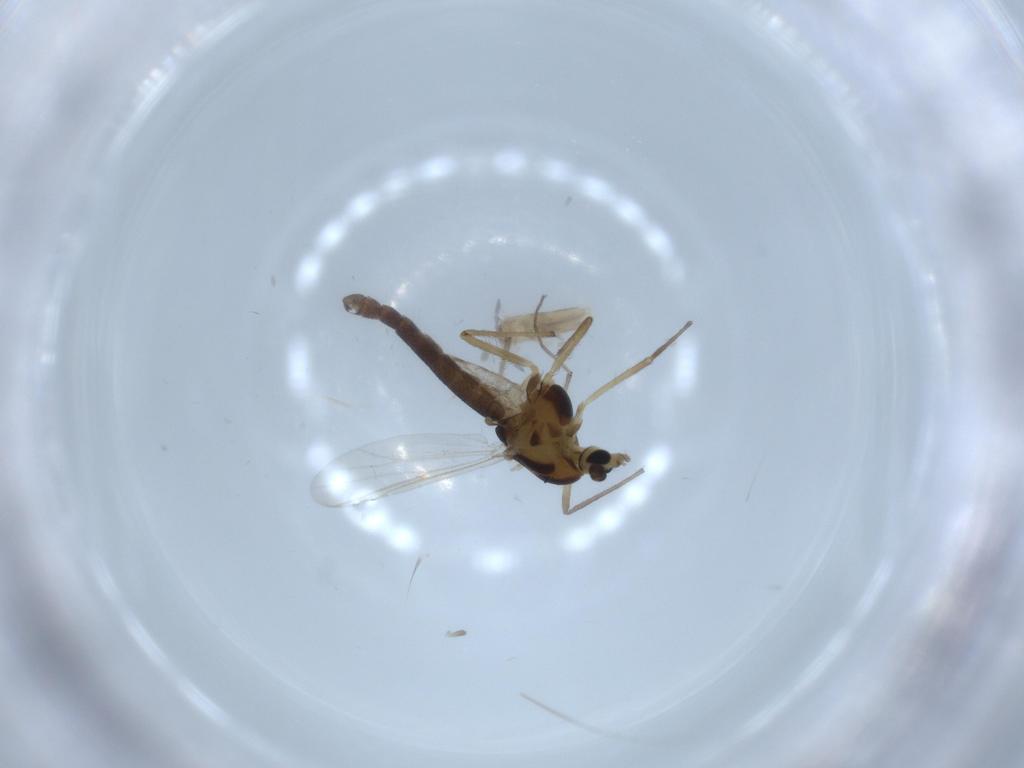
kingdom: Animalia
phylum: Arthropoda
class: Insecta
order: Diptera
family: Chironomidae
